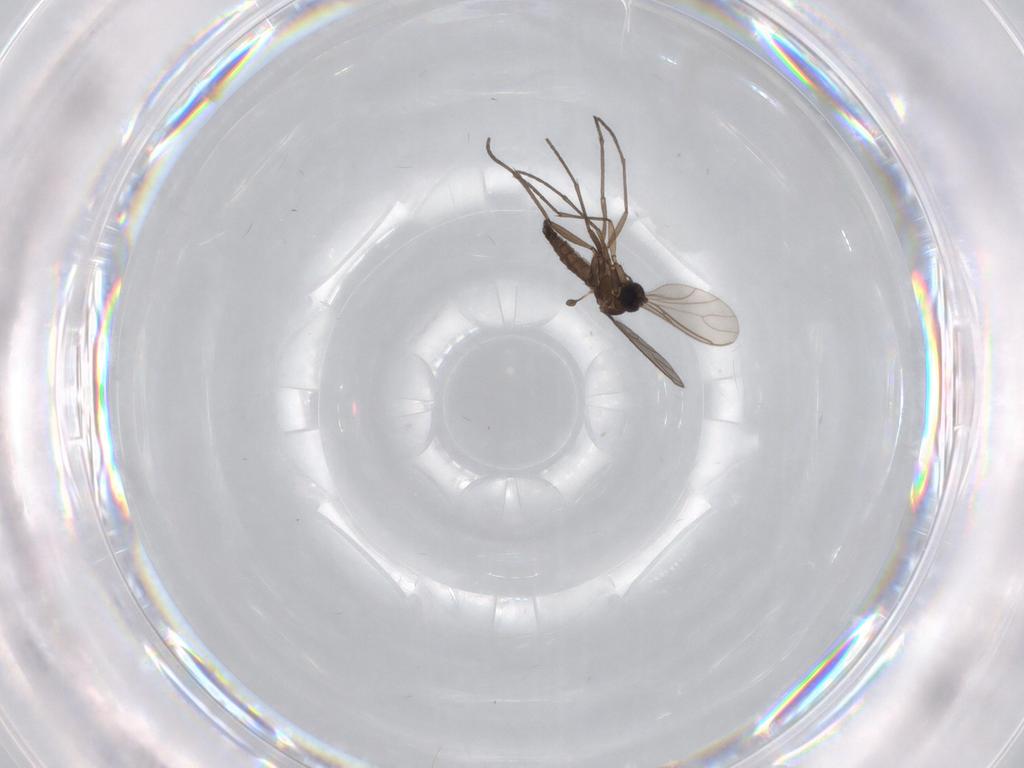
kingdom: Animalia
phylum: Arthropoda
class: Insecta
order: Diptera
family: Sciaridae
